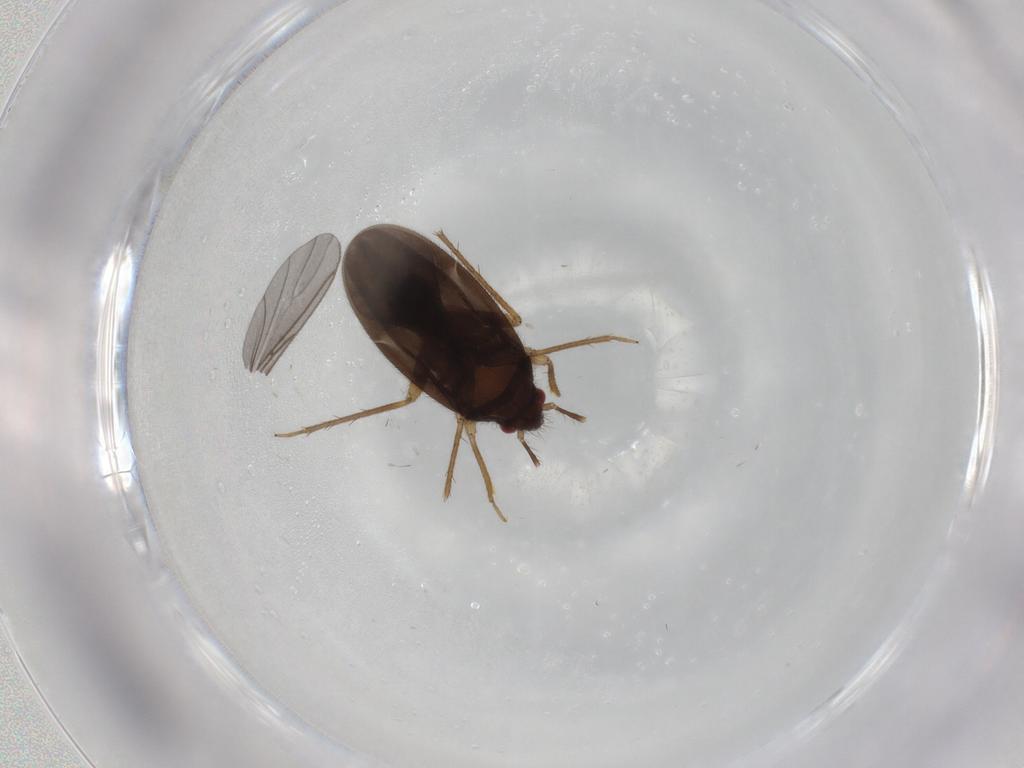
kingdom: Animalia
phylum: Arthropoda
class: Insecta
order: Hemiptera
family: Ceratocombidae
